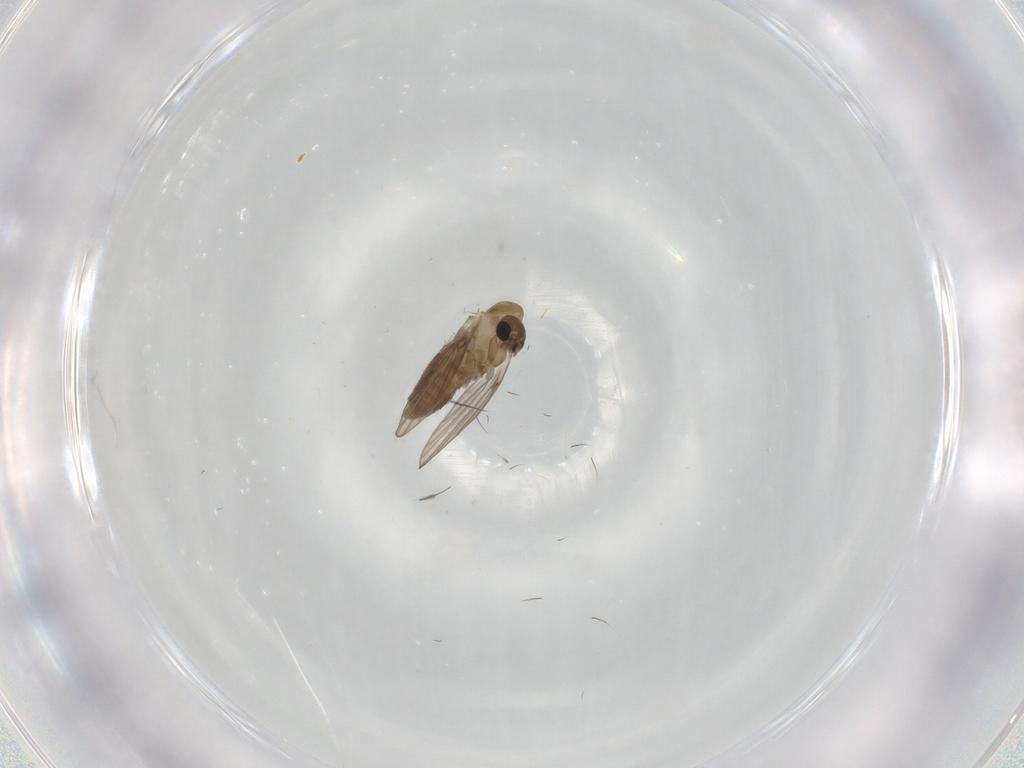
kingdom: Animalia
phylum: Arthropoda
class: Insecta
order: Diptera
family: Psychodidae
